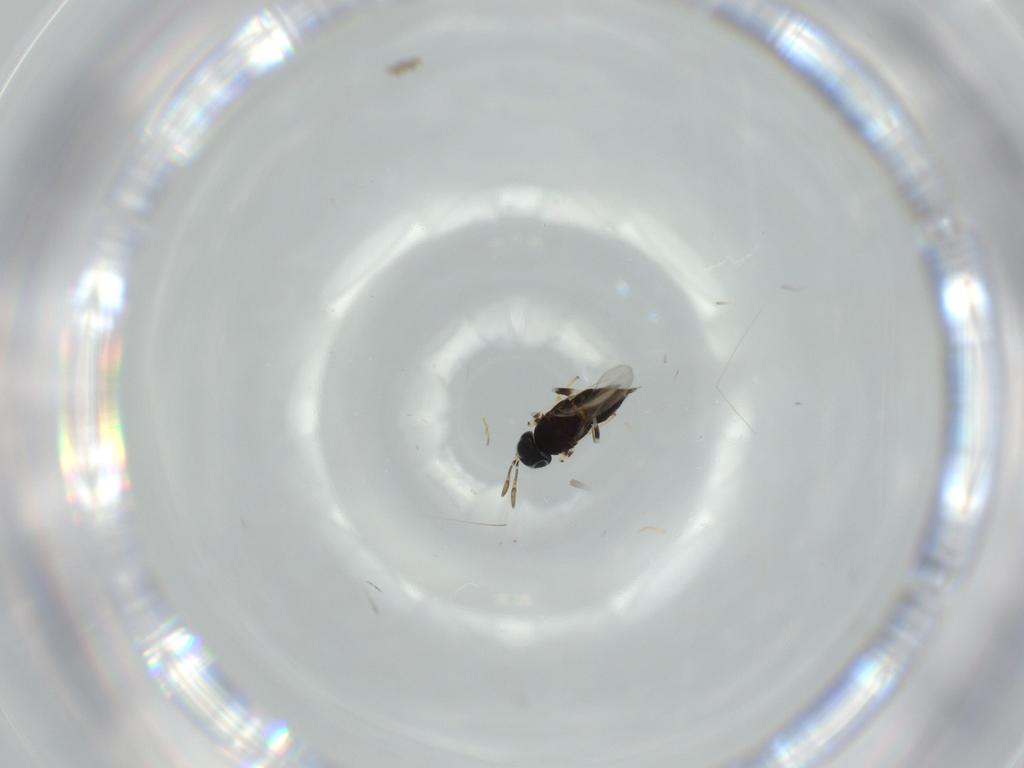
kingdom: Animalia
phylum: Arthropoda
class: Insecta
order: Hymenoptera
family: Scelionidae
